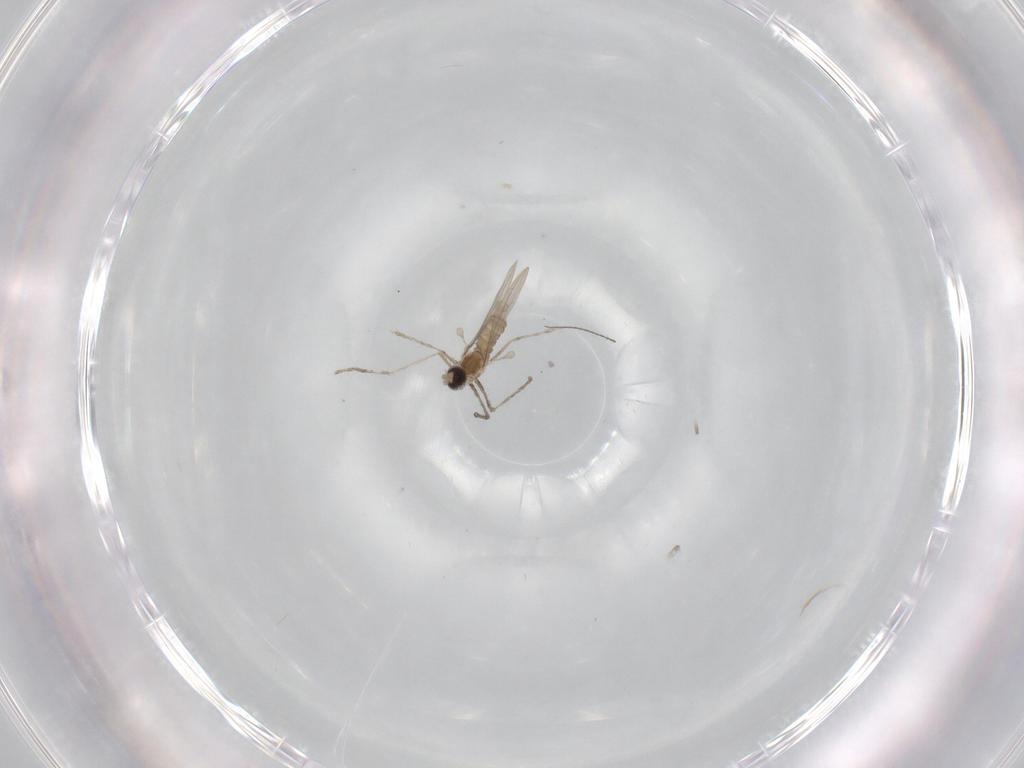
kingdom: Animalia
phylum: Arthropoda
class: Insecta
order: Diptera
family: Cecidomyiidae
